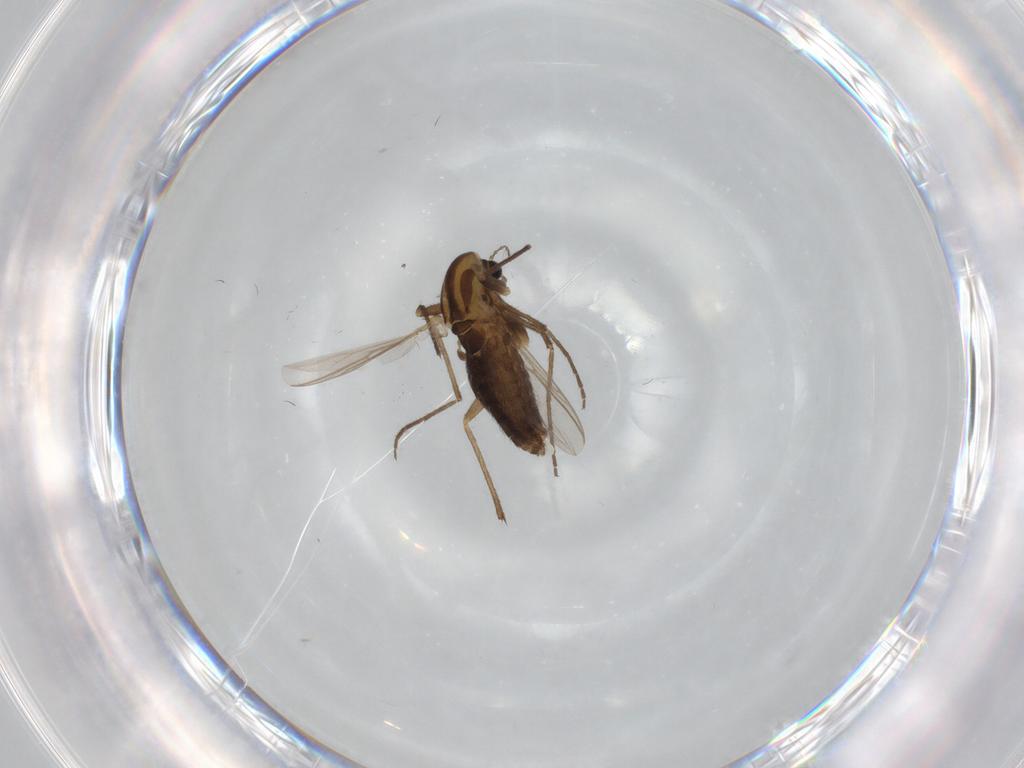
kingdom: Animalia
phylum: Arthropoda
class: Insecta
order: Diptera
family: Chironomidae
